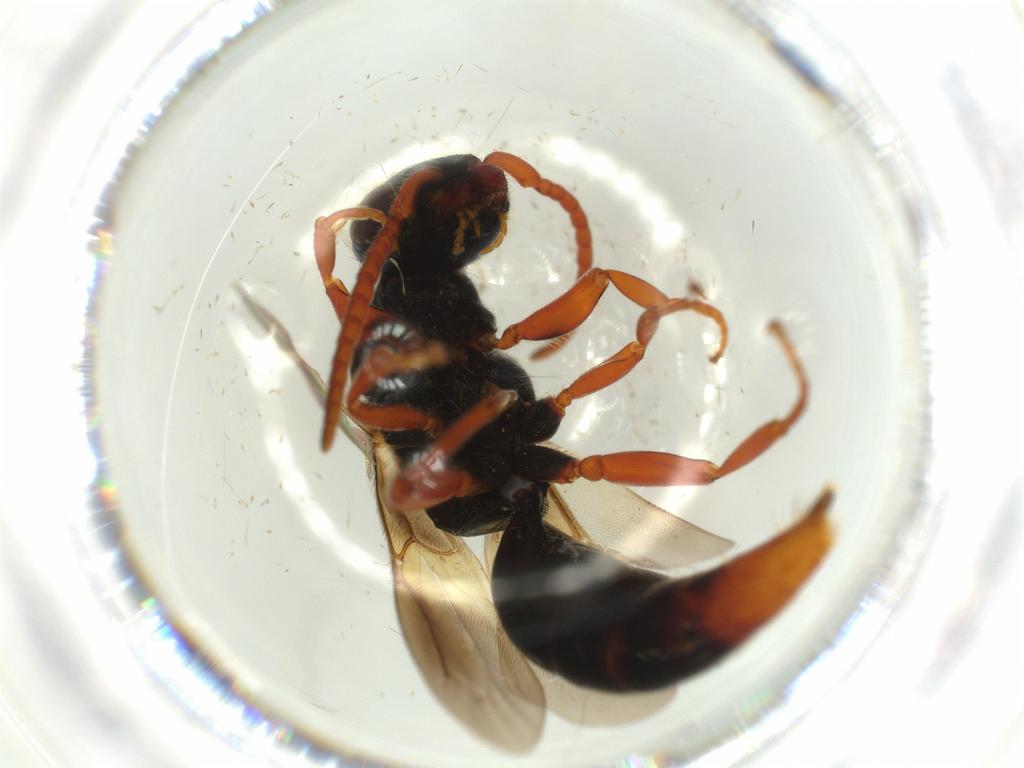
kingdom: Animalia
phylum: Arthropoda
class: Insecta
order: Hymenoptera
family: Bethylidae
